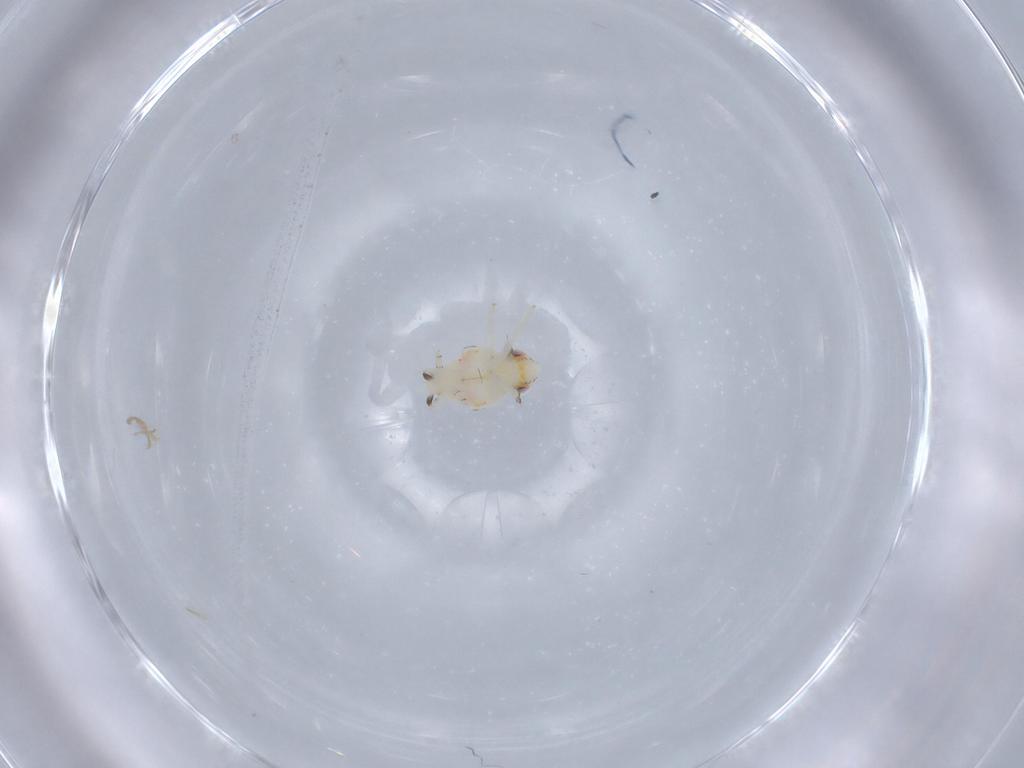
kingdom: Animalia
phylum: Arthropoda
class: Insecta
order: Hemiptera
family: Nogodinidae
